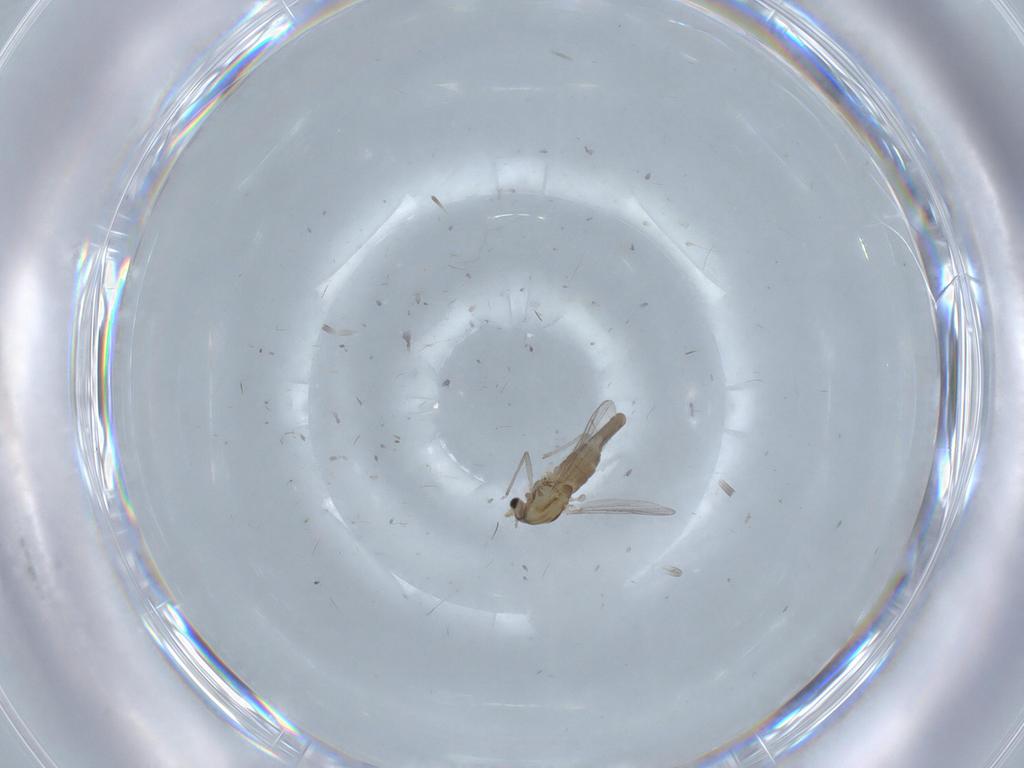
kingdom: Animalia
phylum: Arthropoda
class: Insecta
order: Diptera
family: Chironomidae
